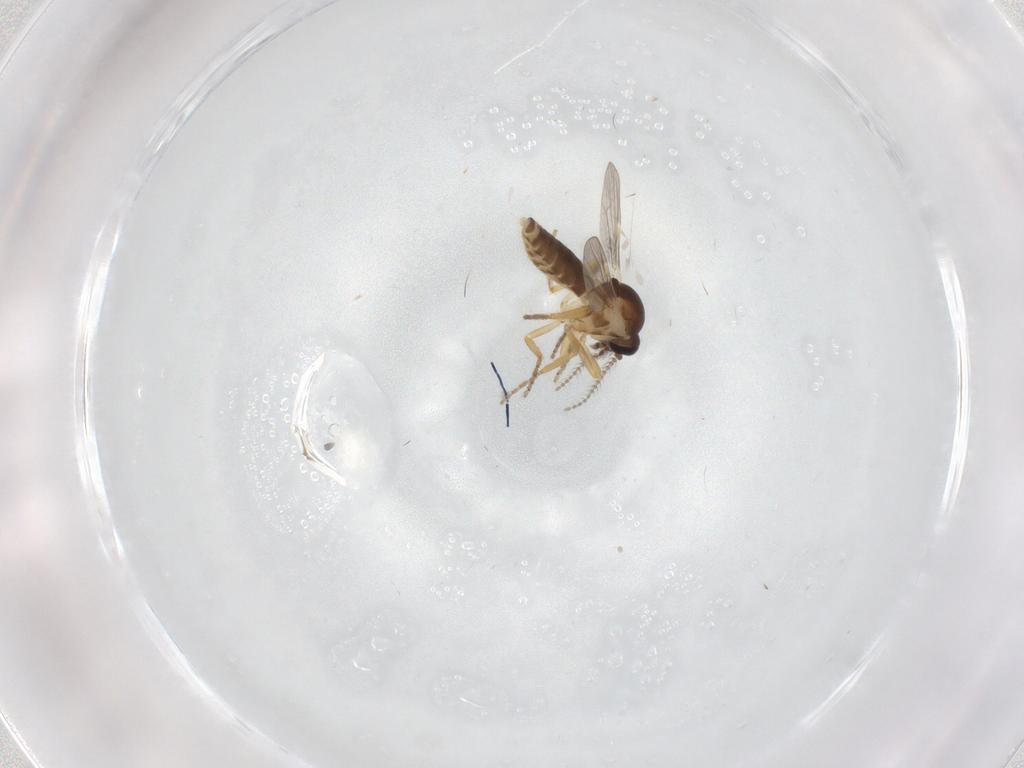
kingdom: Animalia
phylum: Arthropoda
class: Insecta
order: Diptera
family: Ceratopogonidae
